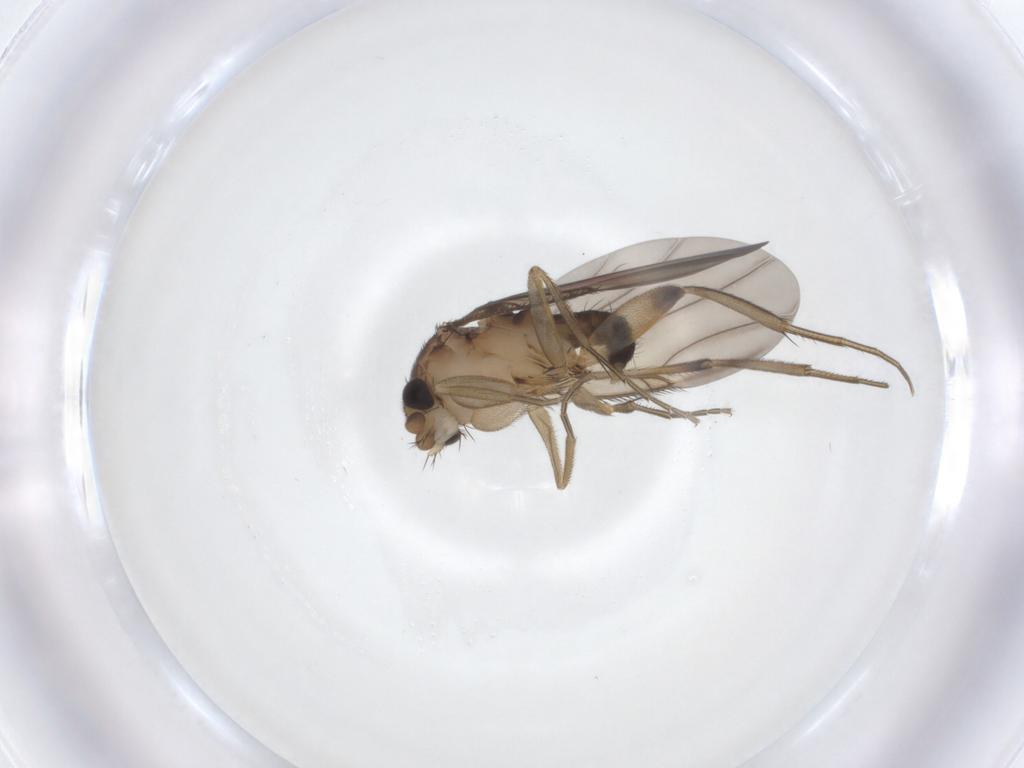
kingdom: Animalia
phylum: Arthropoda
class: Insecta
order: Diptera
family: Phoridae
